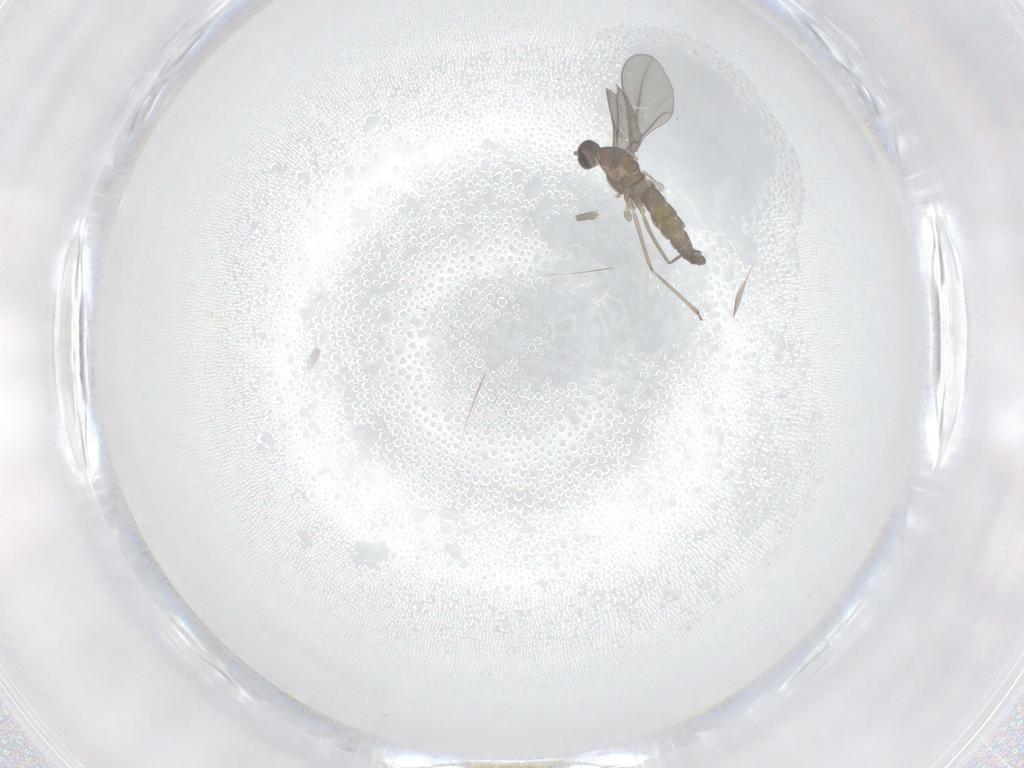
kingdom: Animalia
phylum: Arthropoda
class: Insecta
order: Diptera
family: Cecidomyiidae
